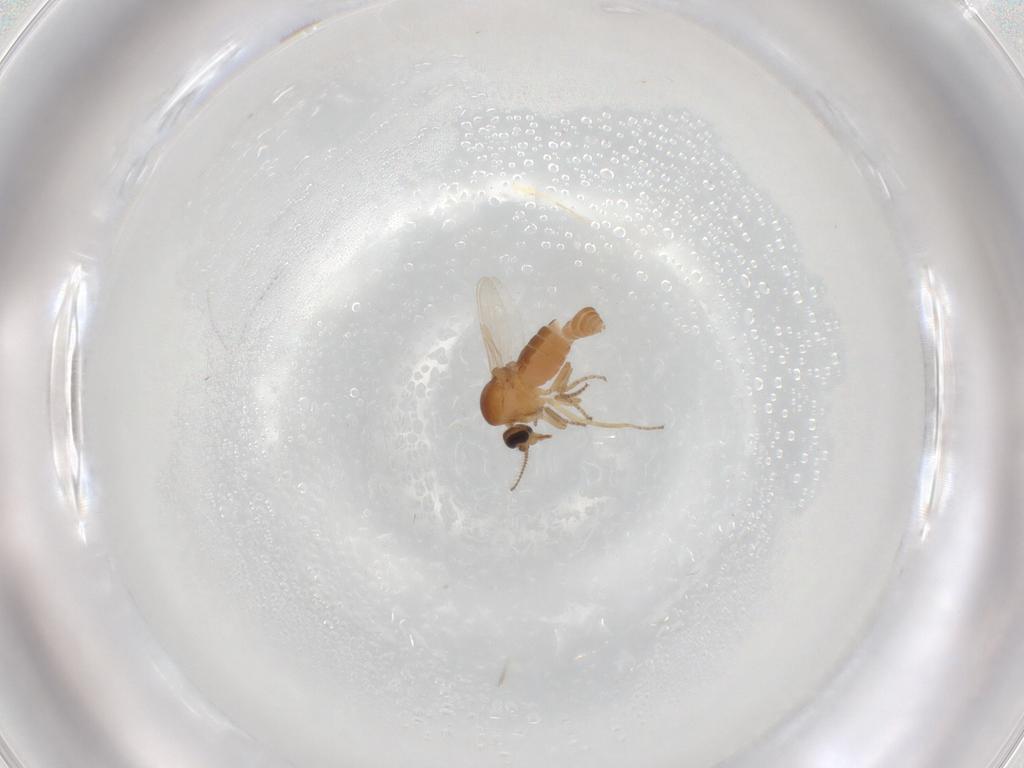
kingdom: Animalia
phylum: Arthropoda
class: Insecta
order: Diptera
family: Ceratopogonidae
